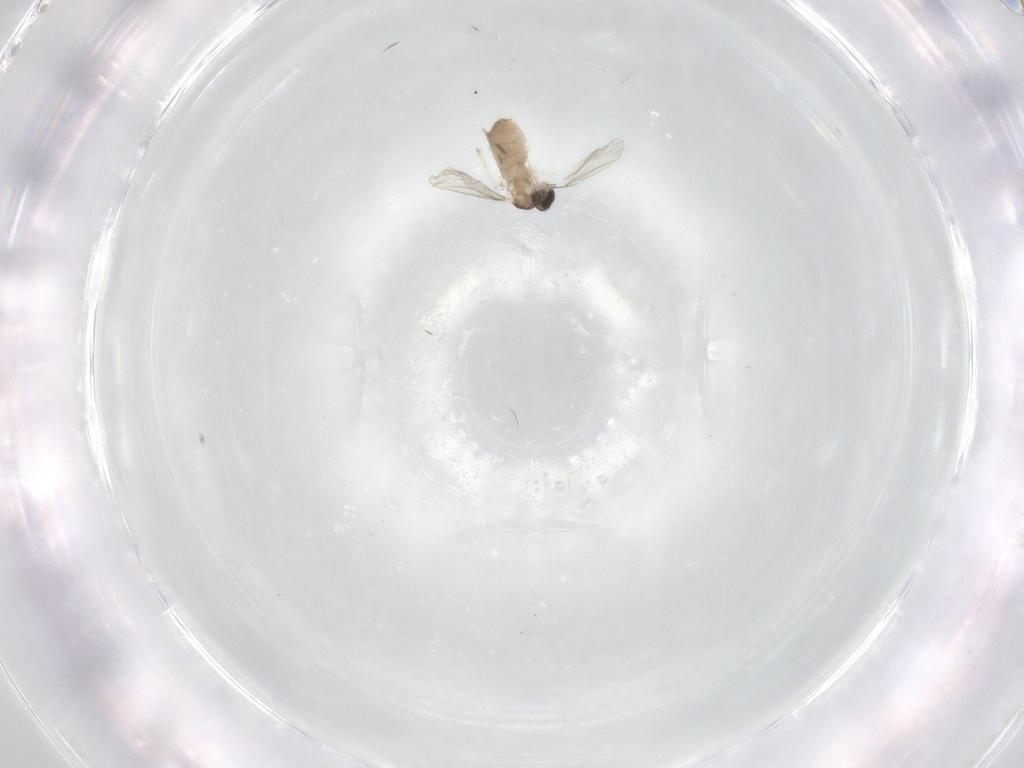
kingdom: Animalia
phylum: Arthropoda
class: Insecta
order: Diptera
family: Cecidomyiidae
